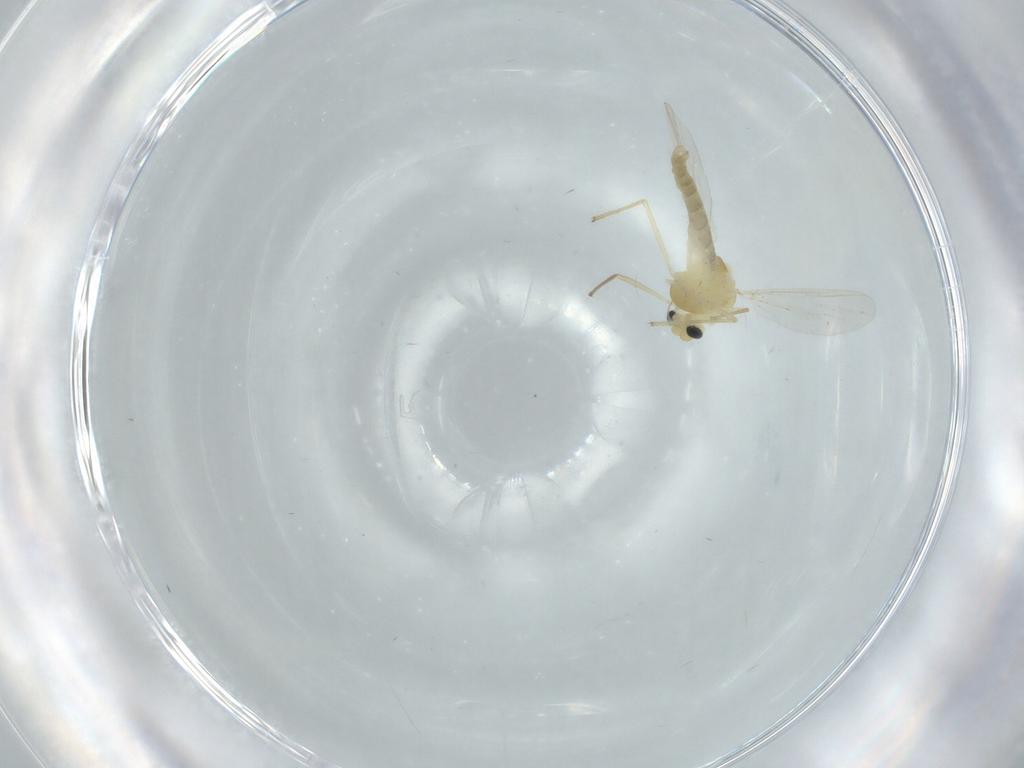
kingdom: Animalia
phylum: Arthropoda
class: Insecta
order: Diptera
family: Chironomidae
